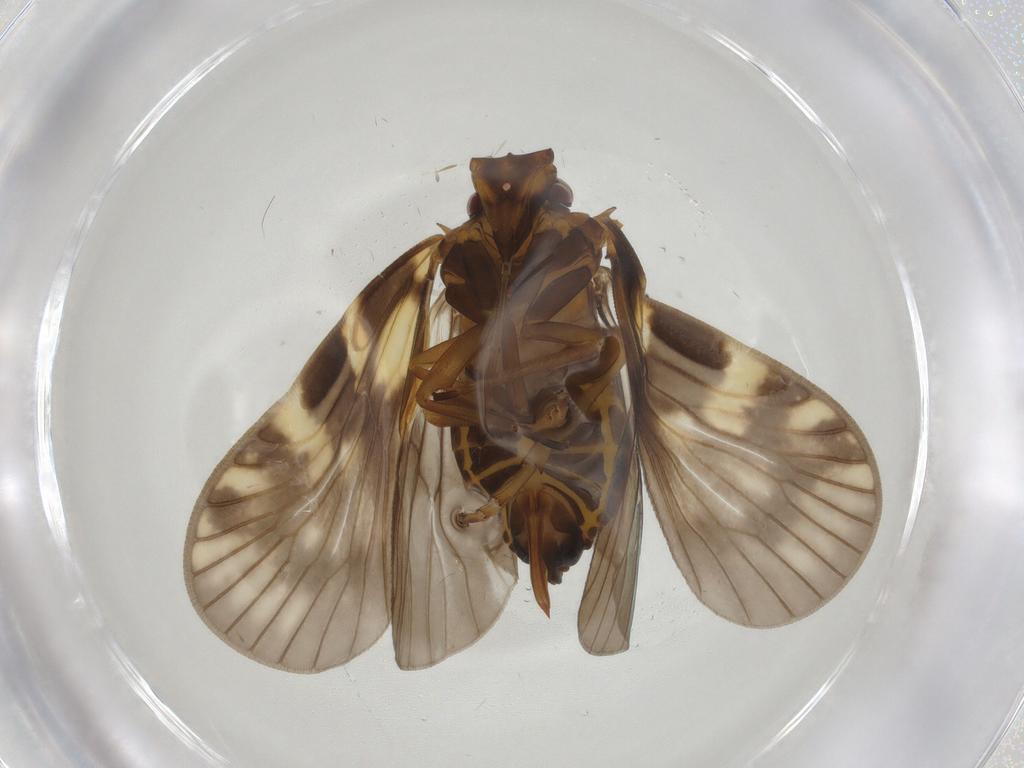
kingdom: Animalia
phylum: Arthropoda
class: Insecta
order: Hemiptera
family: Cixiidae
